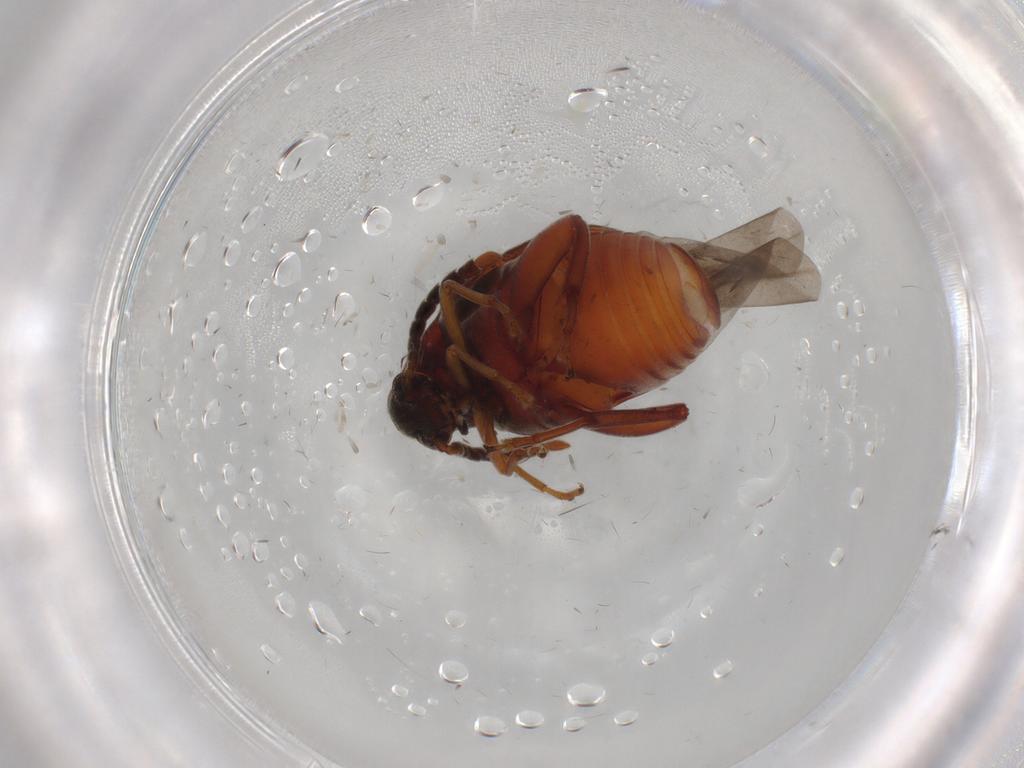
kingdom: Animalia
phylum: Arthropoda
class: Insecta
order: Coleoptera
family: Chrysomelidae
